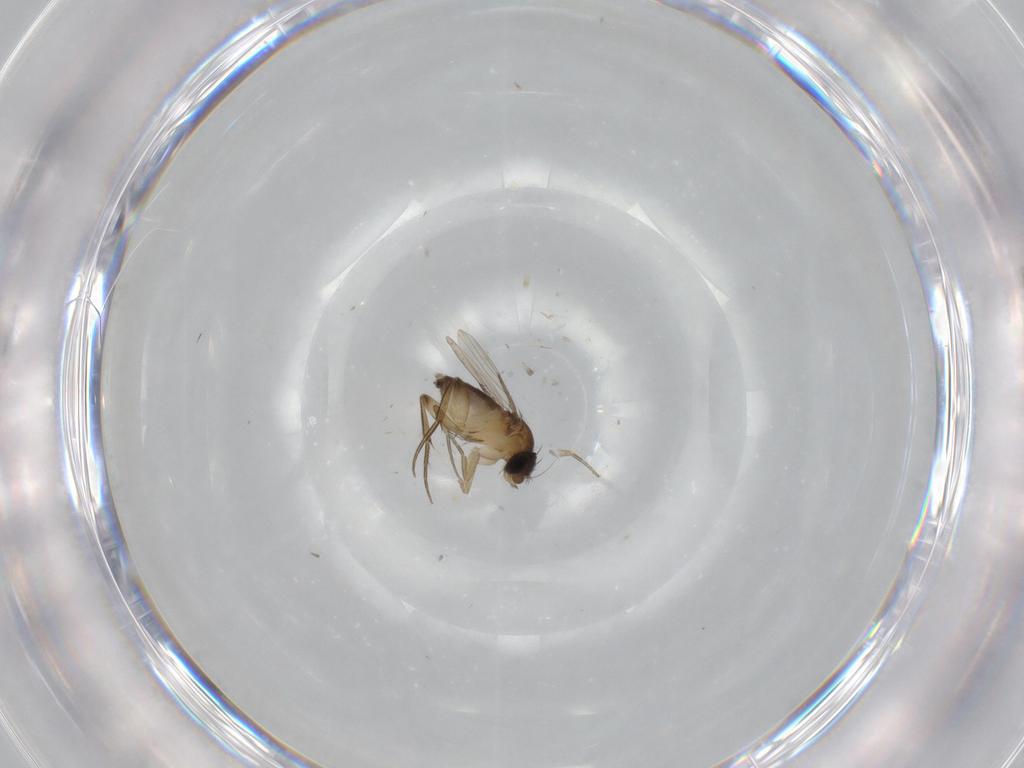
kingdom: Animalia
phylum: Arthropoda
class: Insecta
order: Diptera
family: Phoridae
